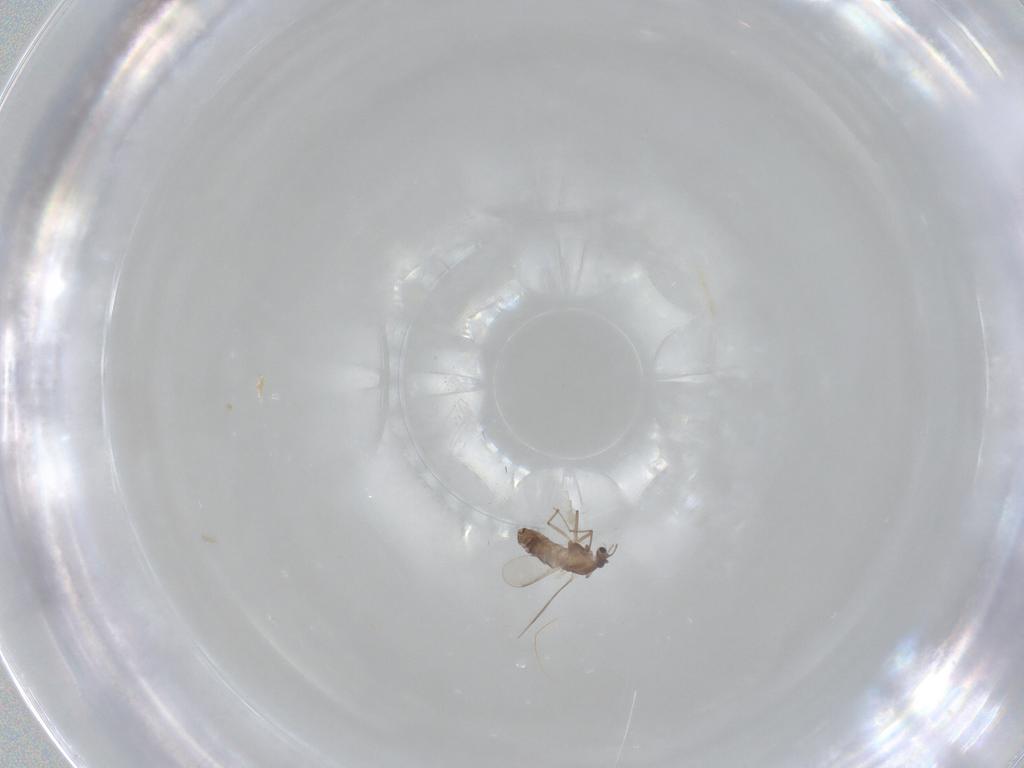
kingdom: Animalia
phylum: Arthropoda
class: Insecta
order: Diptera
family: Chironomidae
